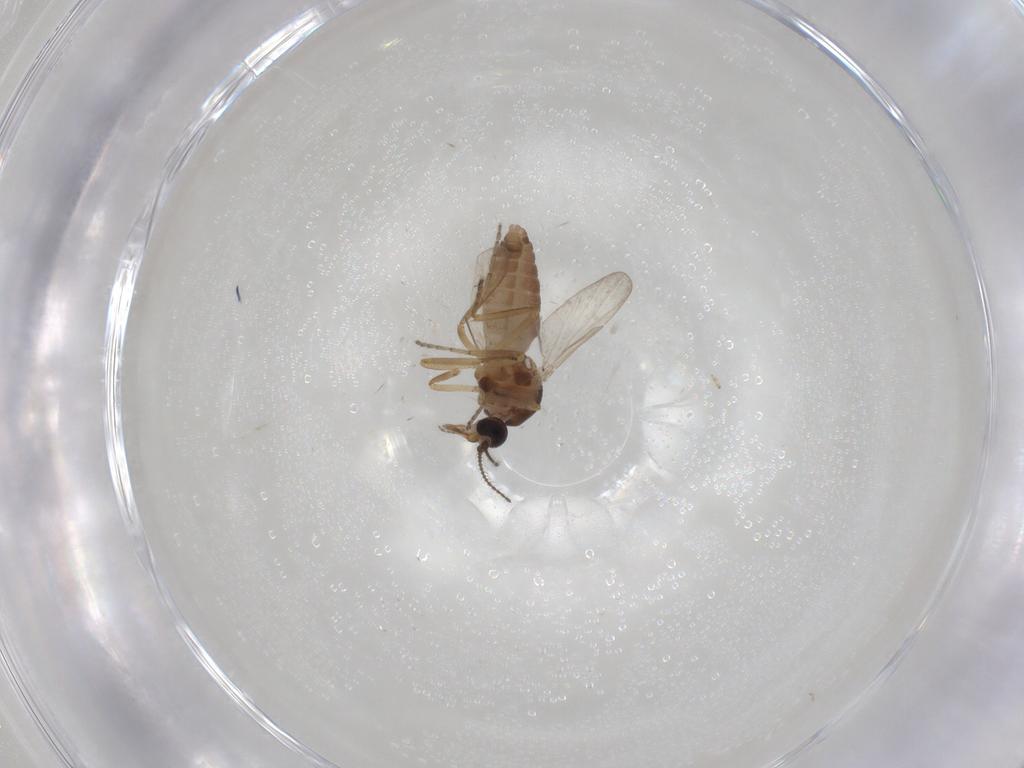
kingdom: Animalia
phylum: Arthropoda
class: Insecta
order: Diptera
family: Ceratopogonidae
